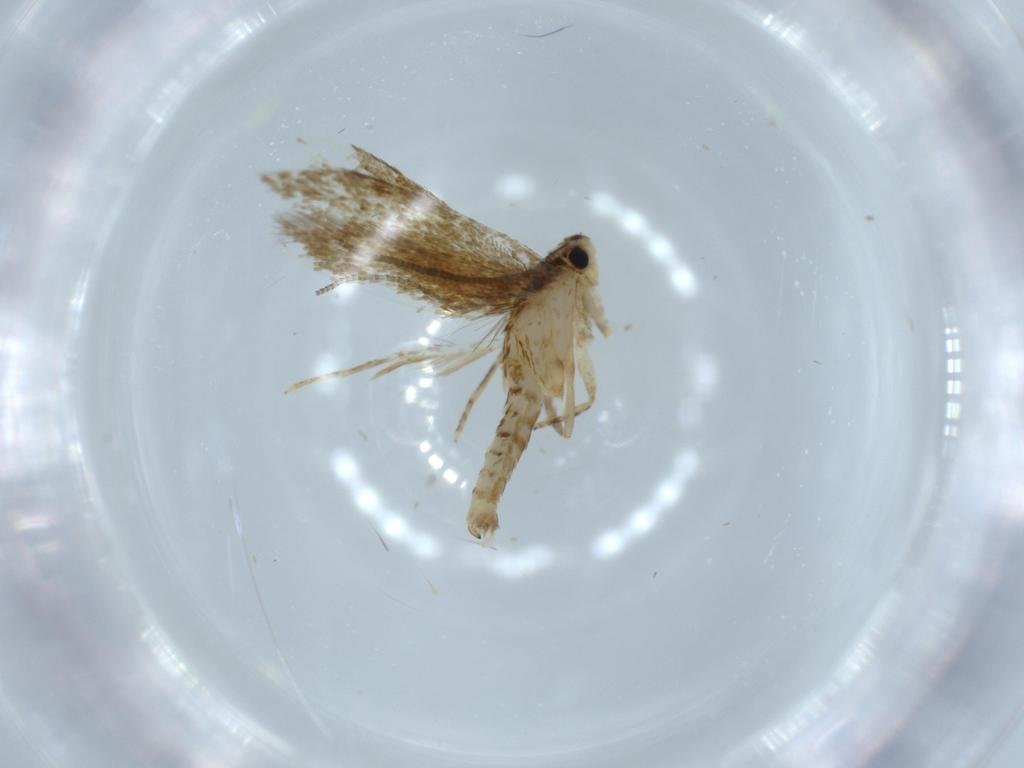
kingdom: Animalia
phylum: Arthropoda
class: Insecta
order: Lepidoptera
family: Tineidae
